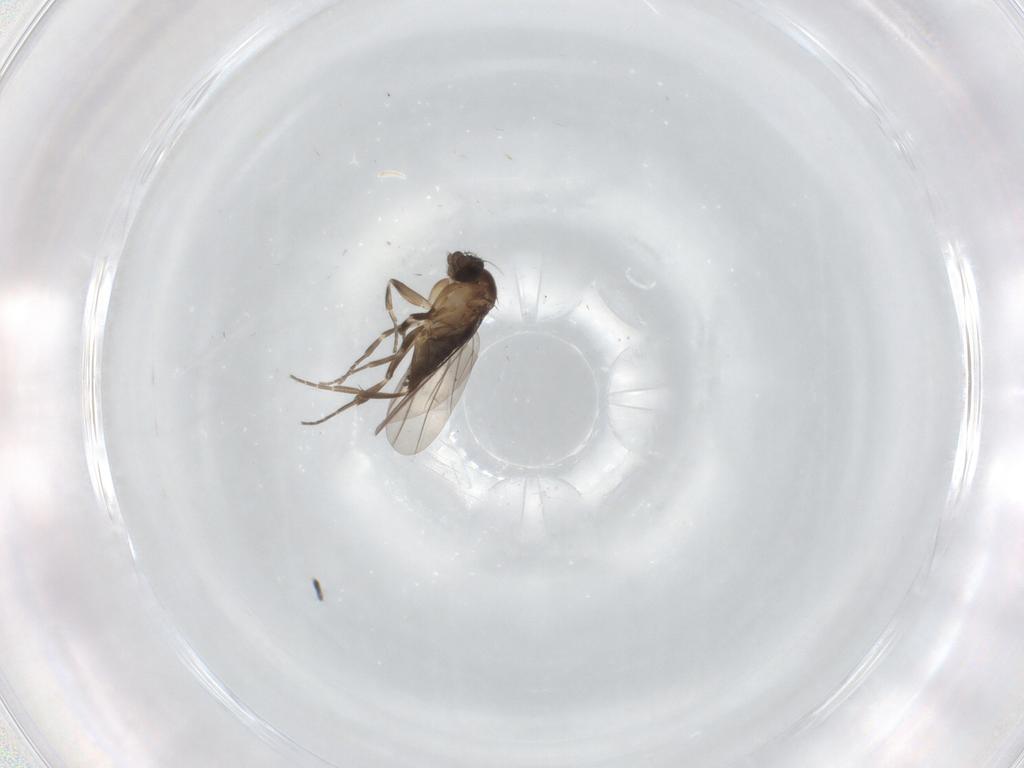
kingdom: Animalia
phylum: Arthropoda
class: Insecta
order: Diptera
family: Phoridae
